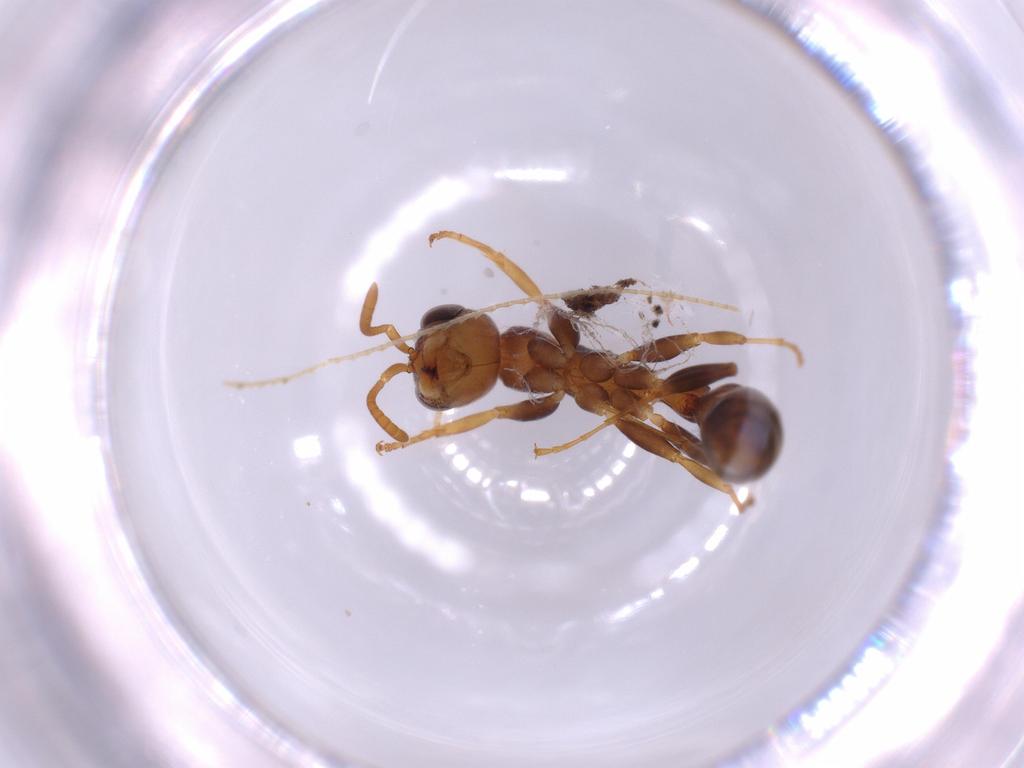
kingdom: Animalia
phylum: Arthropoda
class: Insecta
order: Hymenoptera
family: Formicidae
